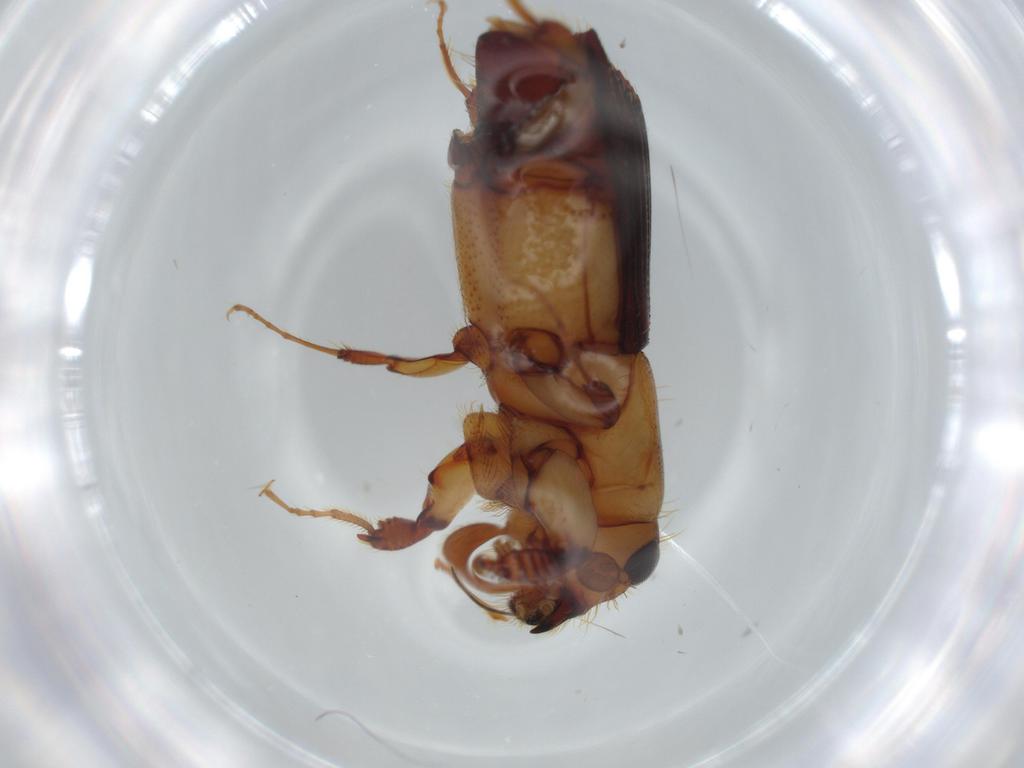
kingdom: Animalia
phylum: Arthropoda
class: Insecta
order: Coleoptera
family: Curculionidae
